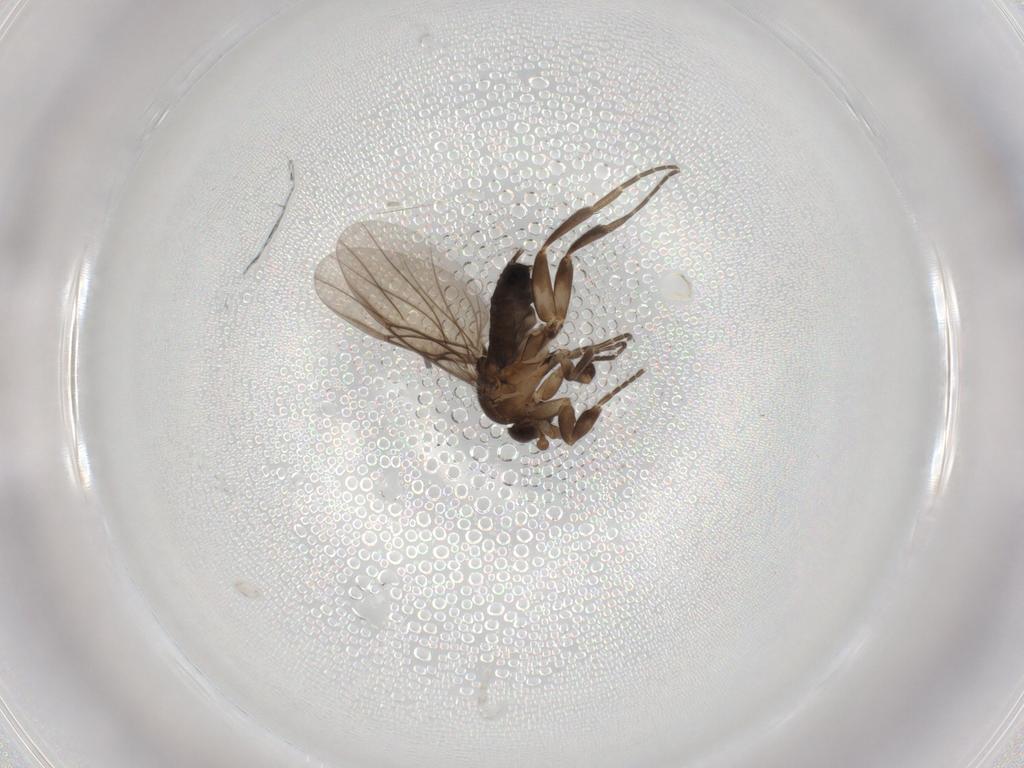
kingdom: Animalia
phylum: Arthropoda
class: Insecta
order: Diptera
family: Phoridae
